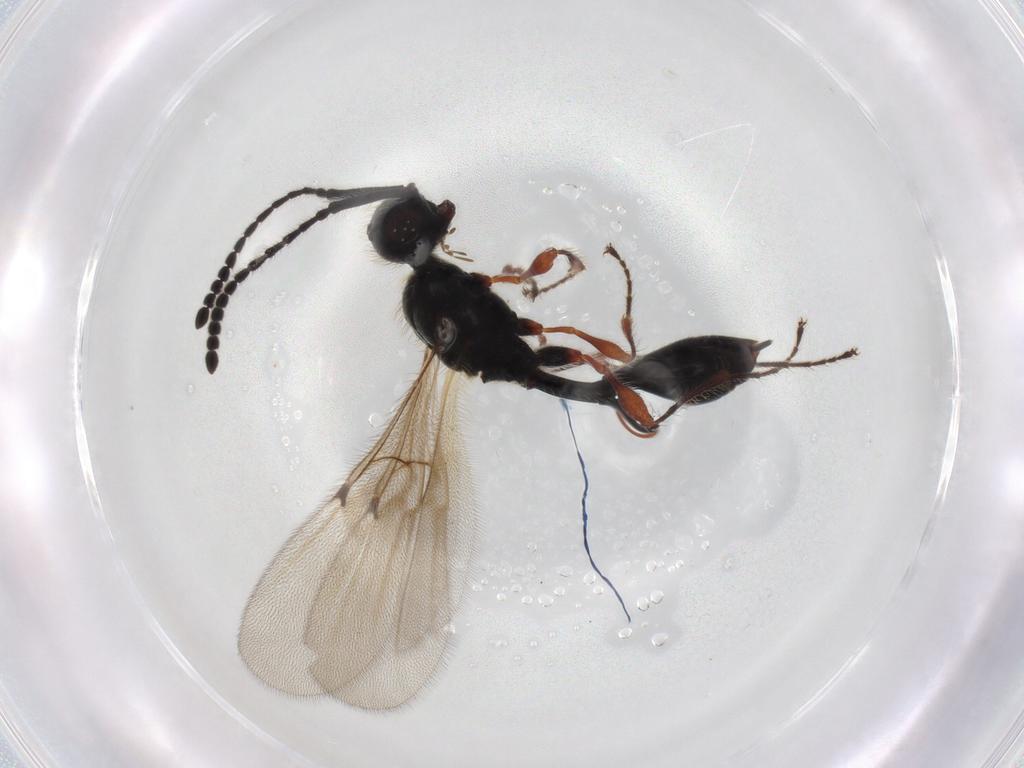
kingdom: Animalia
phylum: Arthropoda
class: Insecta
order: Hymenoptera
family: Diapriidae
